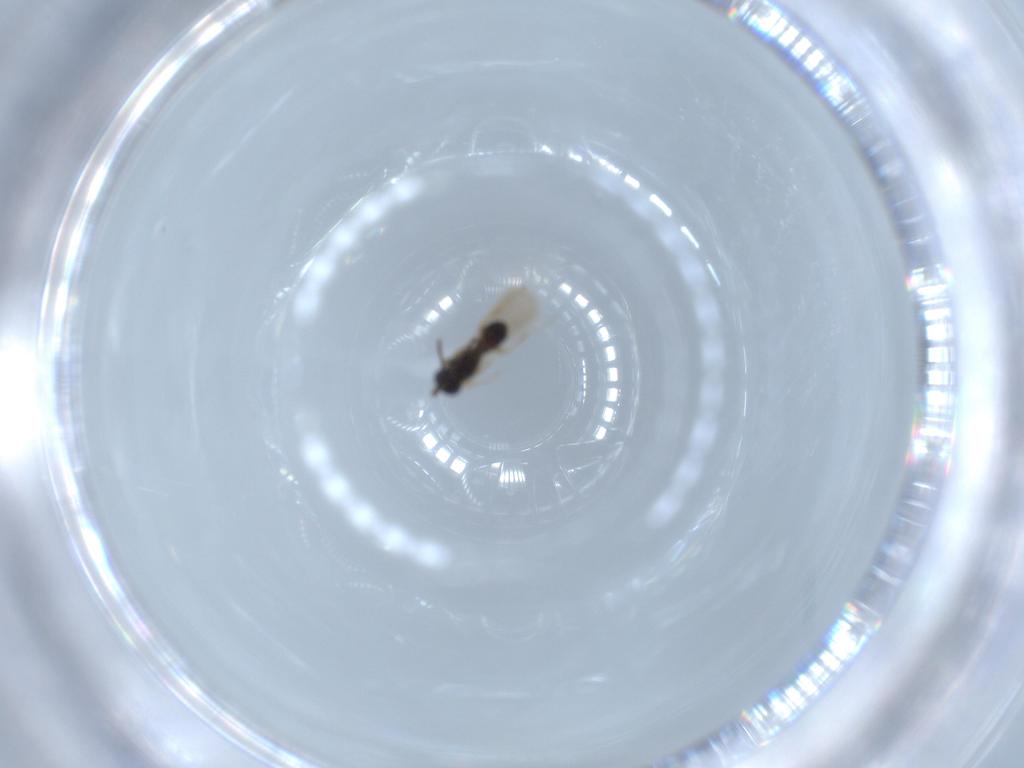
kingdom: Animalia
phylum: Arthropoda
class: Insecta
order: Hymenoptera
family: Scelionidae
